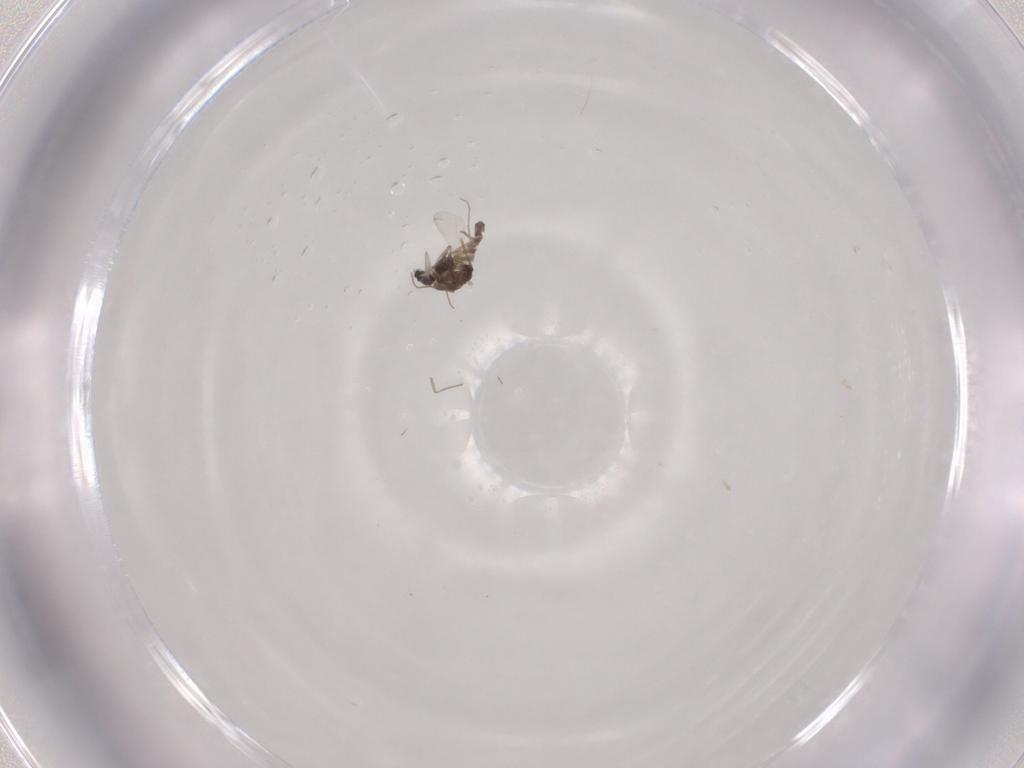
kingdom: Animalia
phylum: Arthropoda
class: Insecta
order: Diptera
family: Chironomidae
